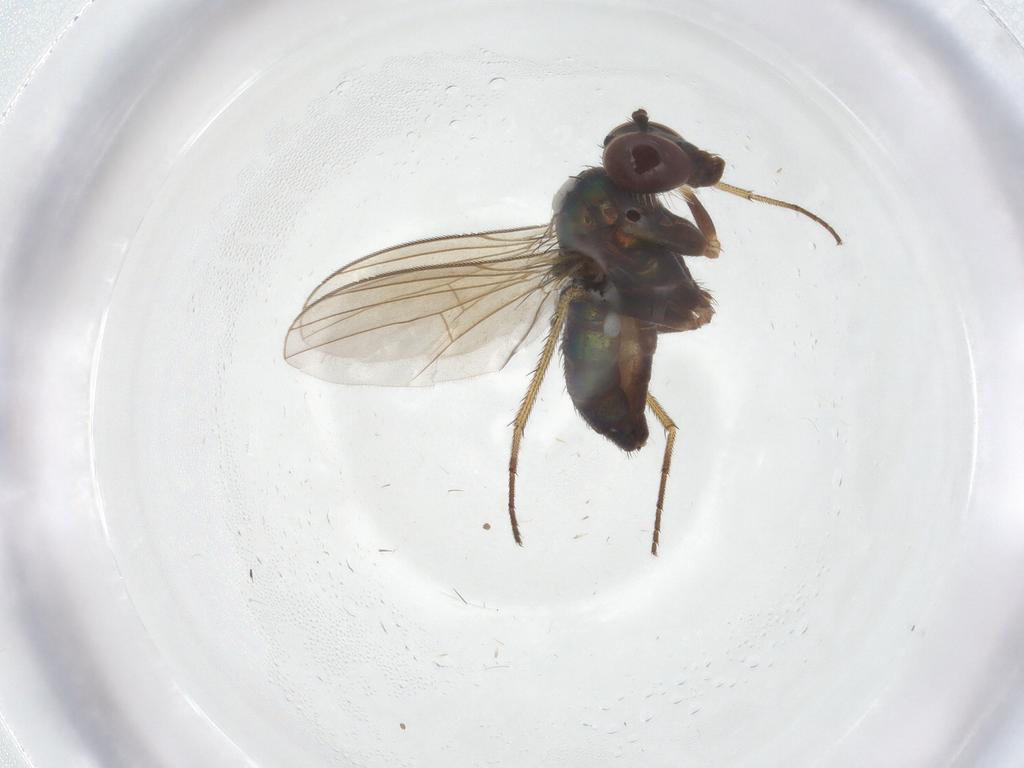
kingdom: Animalia
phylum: Arthropoda
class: Insecta
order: Diptera
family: Dolichopodidae
